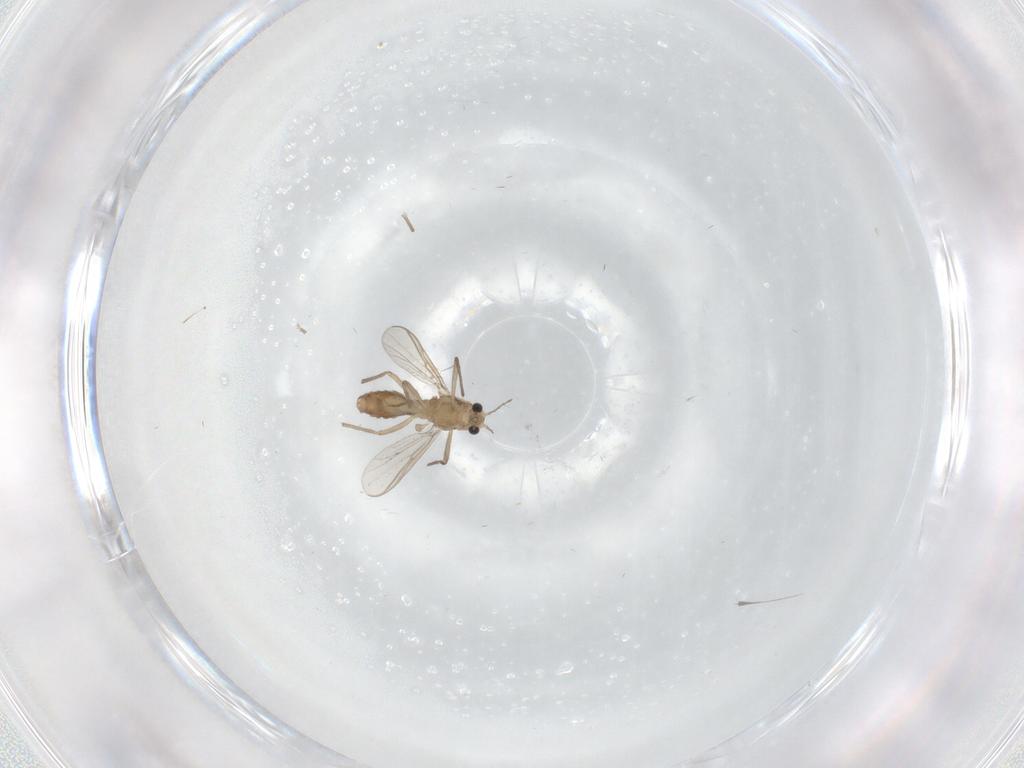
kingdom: Animalia
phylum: Arthropoda
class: Insecta
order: Diptera
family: Chironomidae
